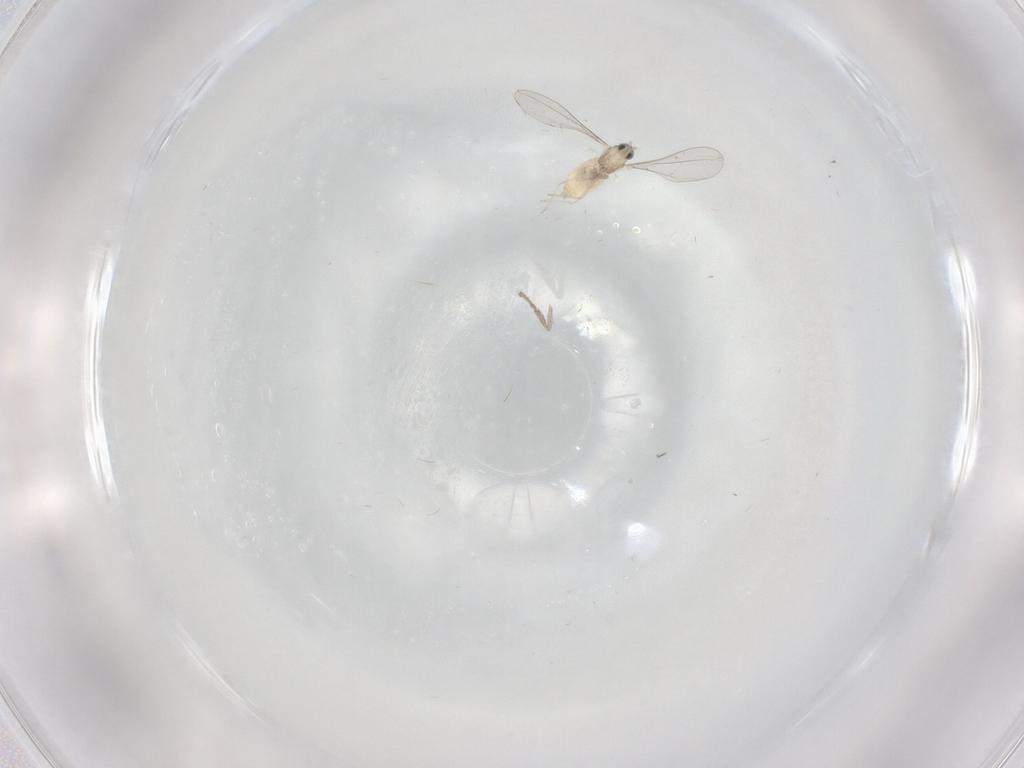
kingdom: Animalia
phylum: Arthropoda
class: Insecta
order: Diptera
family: Cecidomyiidae
